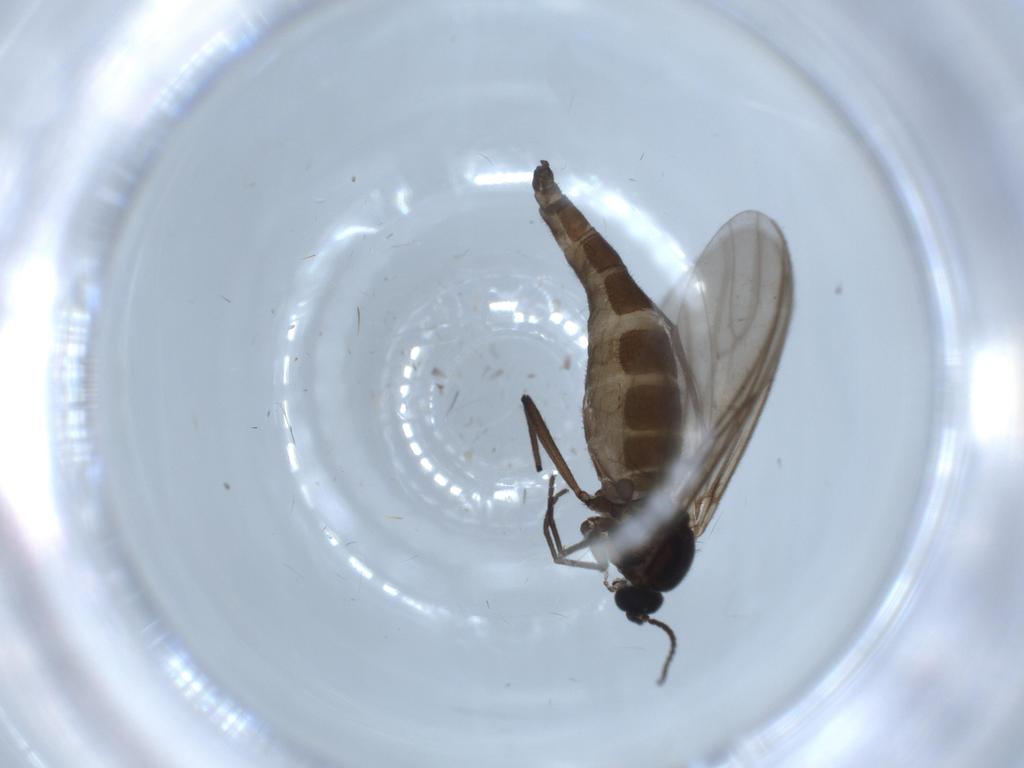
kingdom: Animalia
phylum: Arthropoda
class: Insecta
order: Diptera
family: Sciaridae
